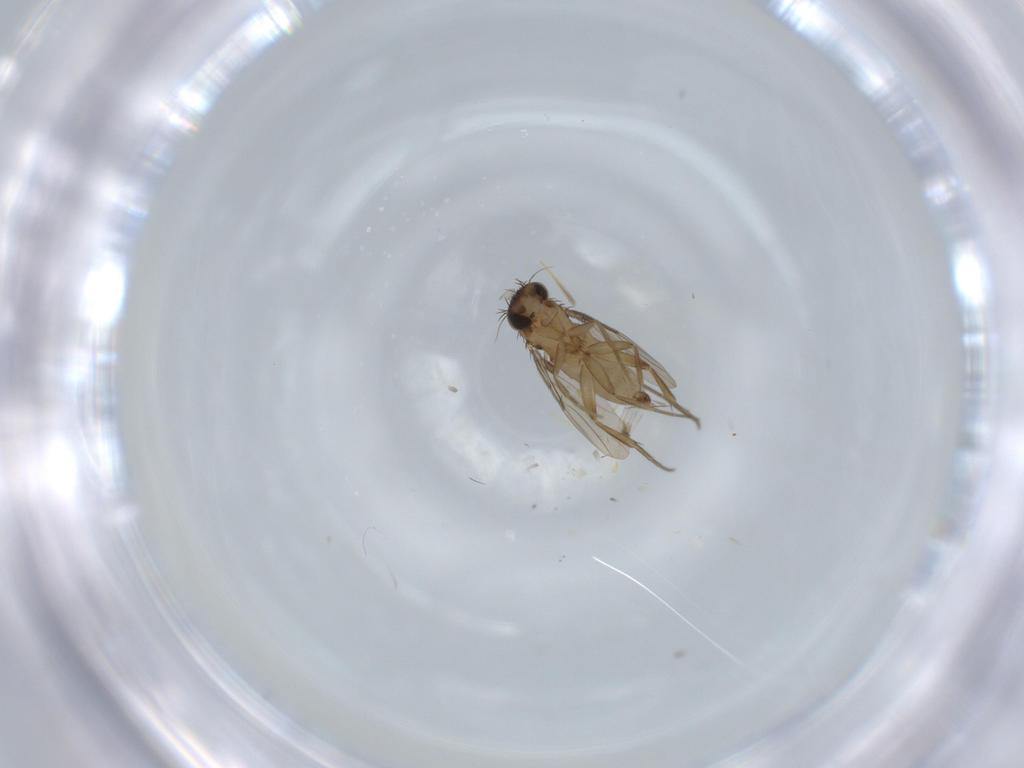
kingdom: Animalia
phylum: Arthropoda
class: Insecta
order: Diptera
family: Phoridae
